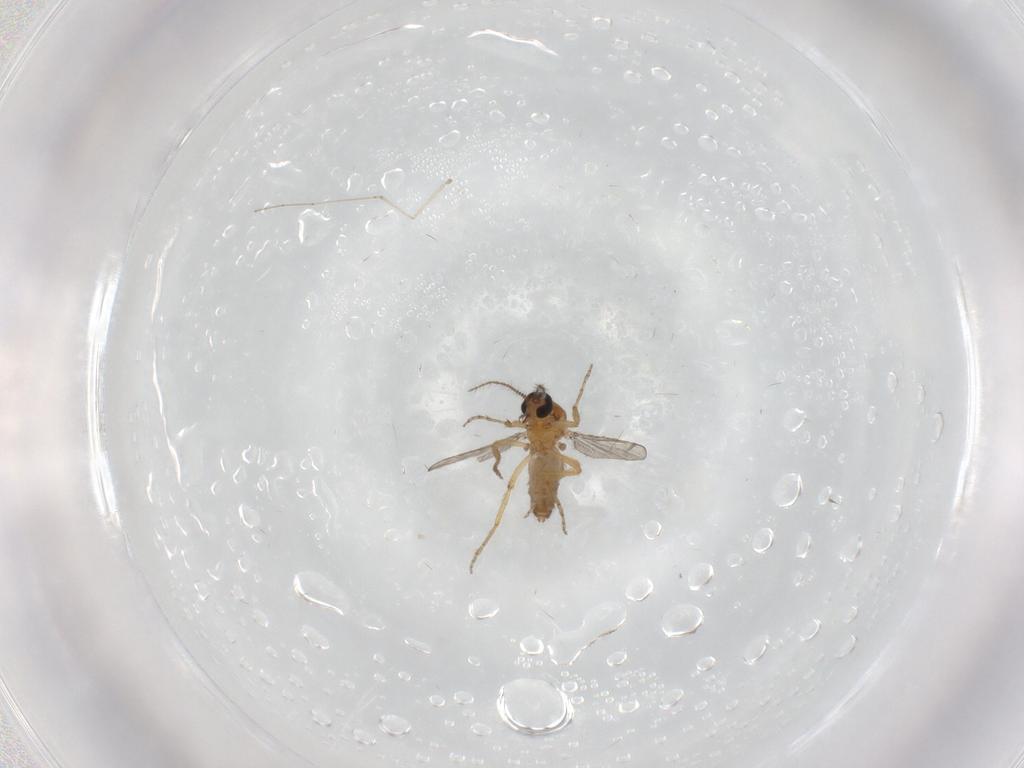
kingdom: Animalia
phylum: Arthropoda
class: Insecta
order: Diptera
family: Ceratopogonidae
